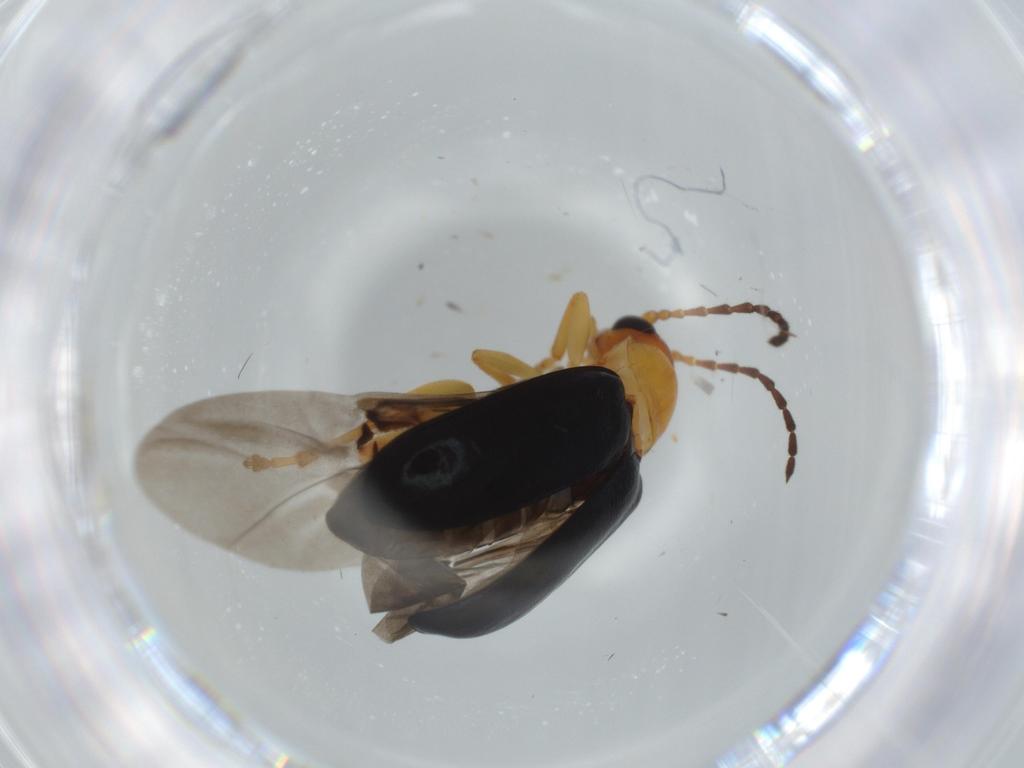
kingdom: Animalia
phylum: Arthropoda
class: Insecta
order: Coleoptera
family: Chrysomelidae
